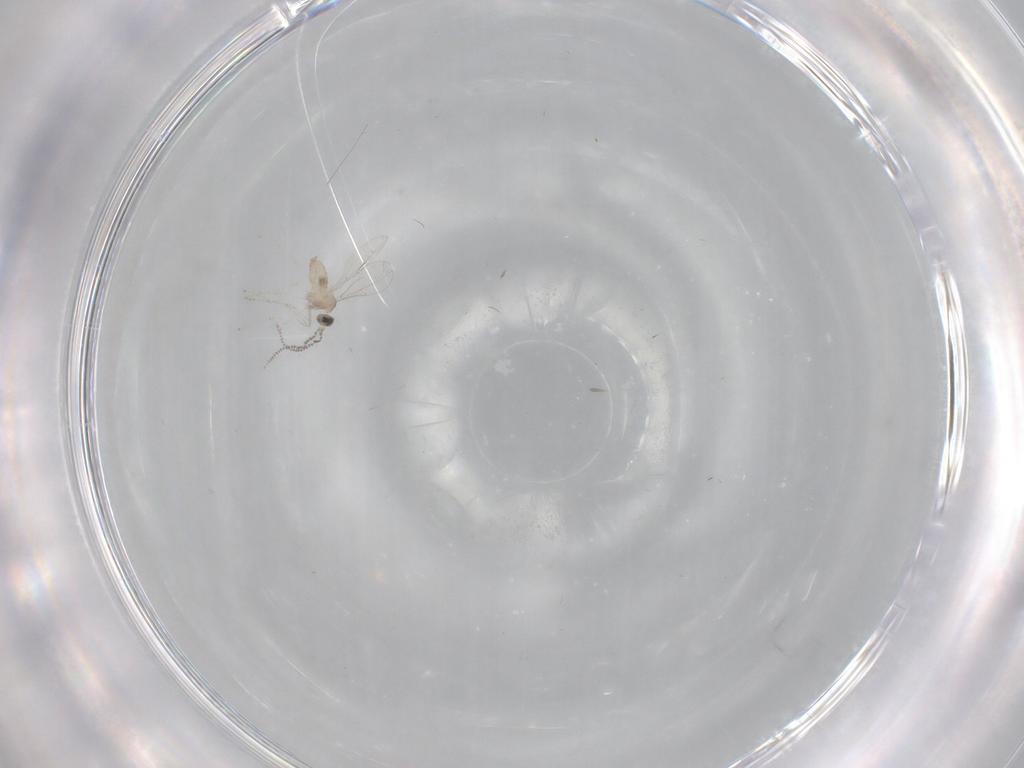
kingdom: Animalia
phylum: Arthropoda
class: Insecta
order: Diptera
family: Cecidomyiidae
